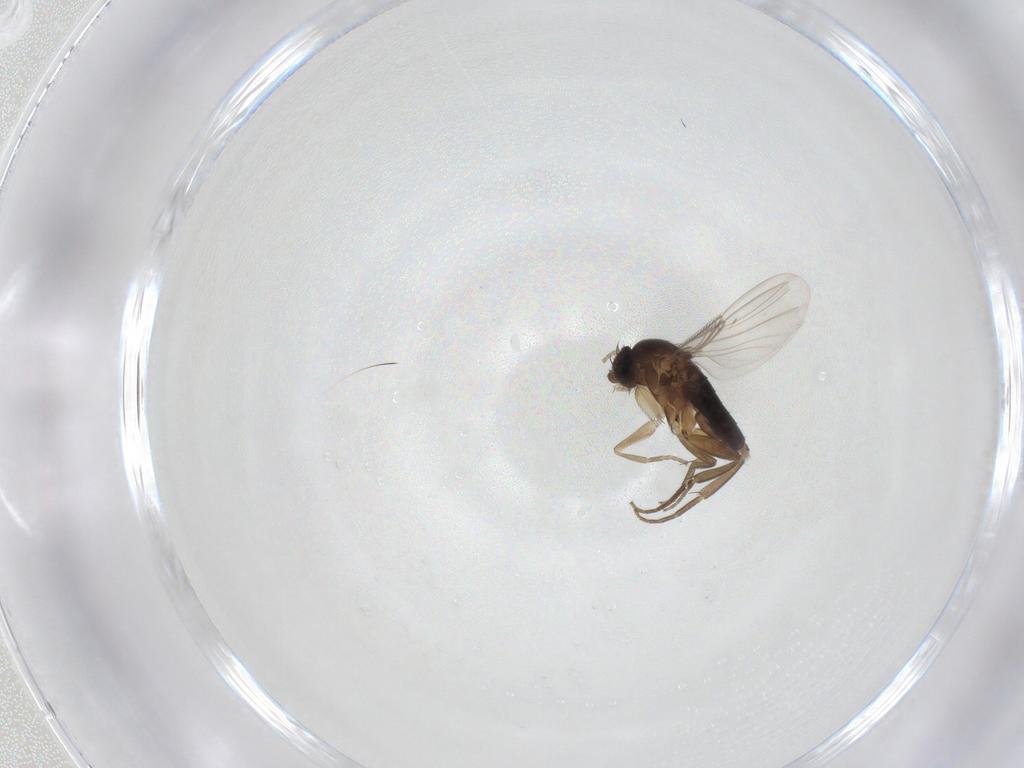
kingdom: Animalia
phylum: Arthropoda
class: Insecta
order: Diptera
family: Phoridae
